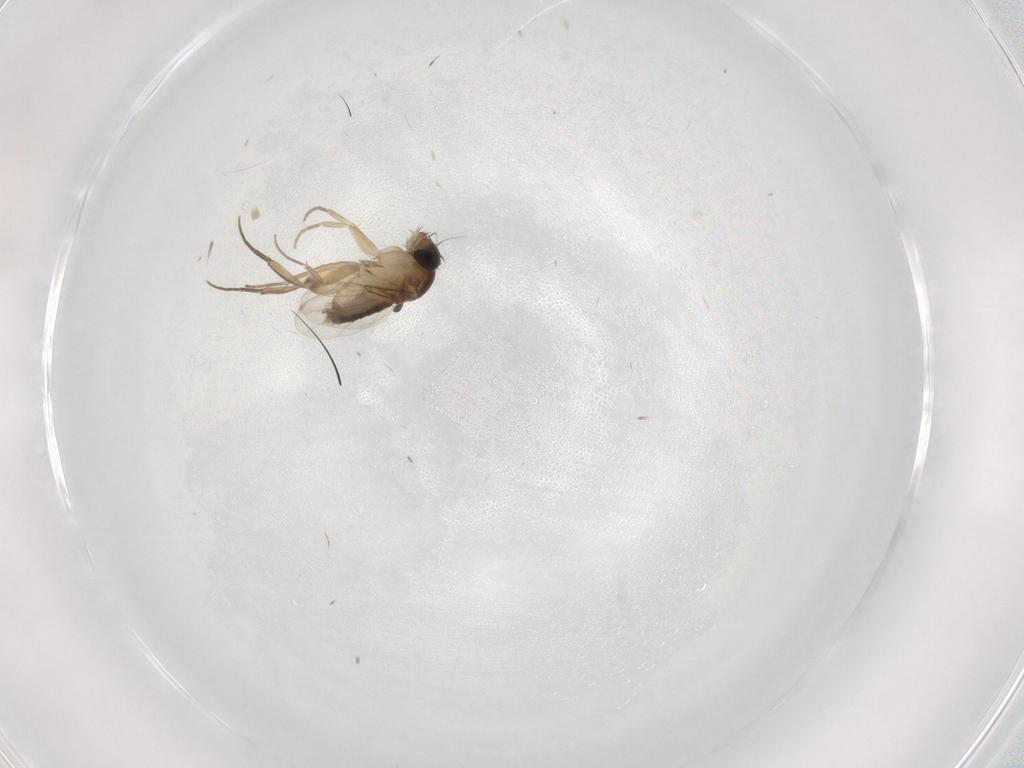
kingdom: Animalia
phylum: Arthropoda
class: Insecta
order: Diptera
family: Phoridae
